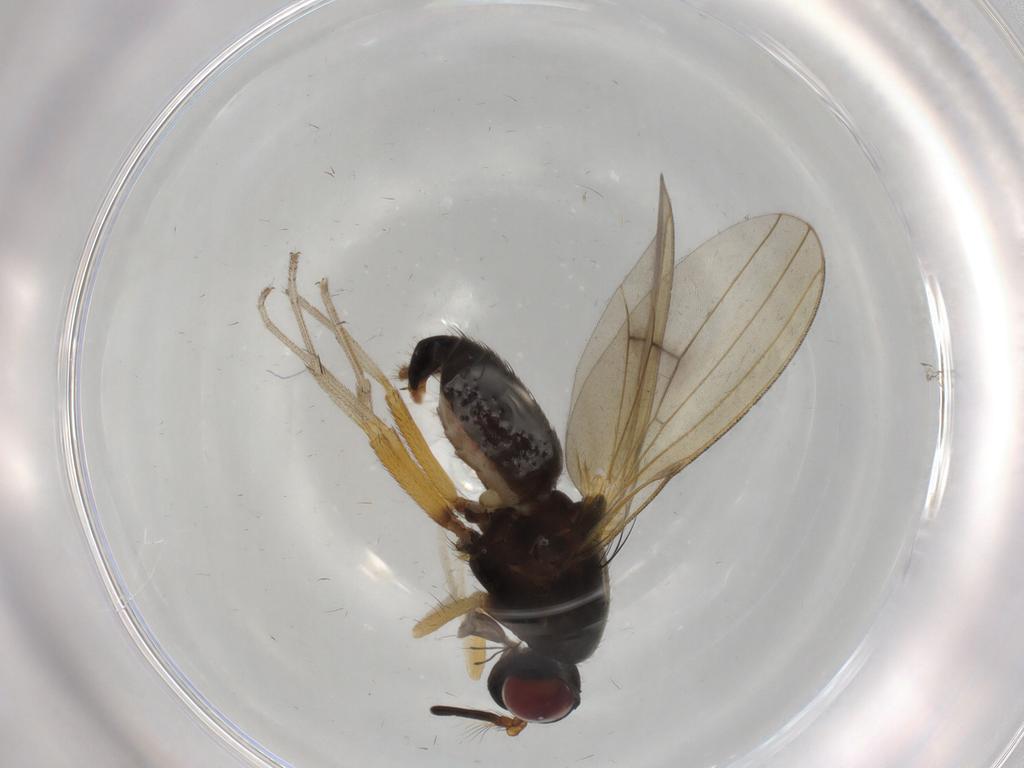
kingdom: Animalia
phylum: Arthropoda
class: Insecta
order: Diptera
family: Lauxaniidae
